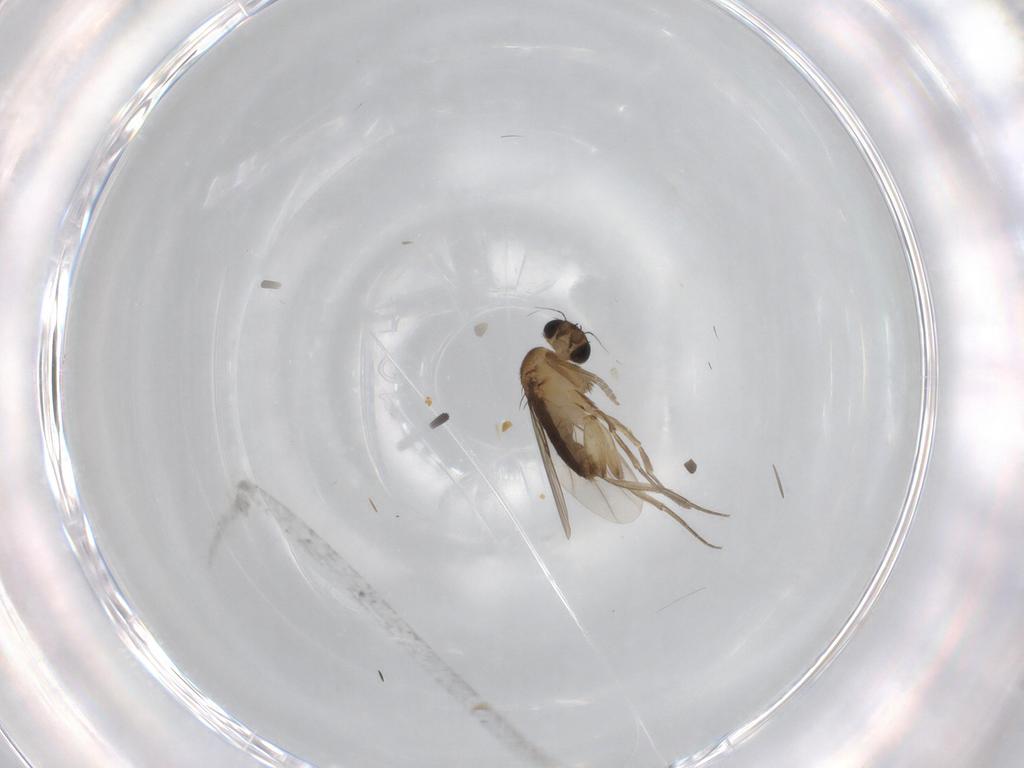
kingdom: Animalia
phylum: Arthropoda
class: Insecta
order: Diptera
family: Phoridae
